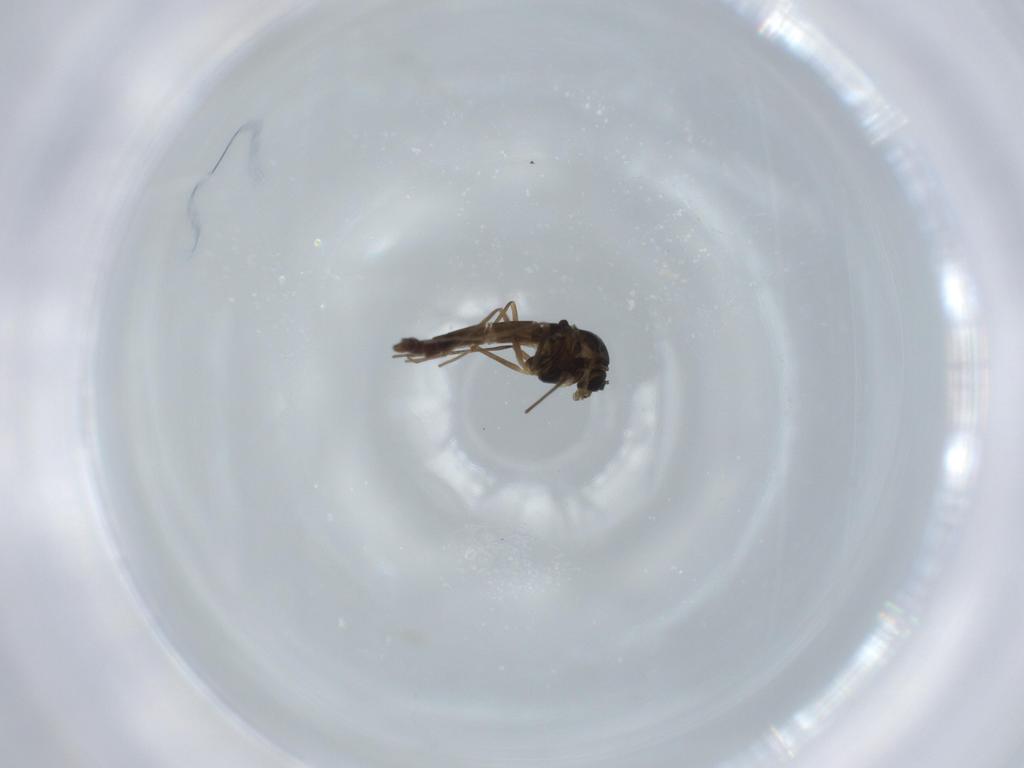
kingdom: Animalia
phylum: Arthropoda
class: Insecta
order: Diptera
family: Chironomidae
